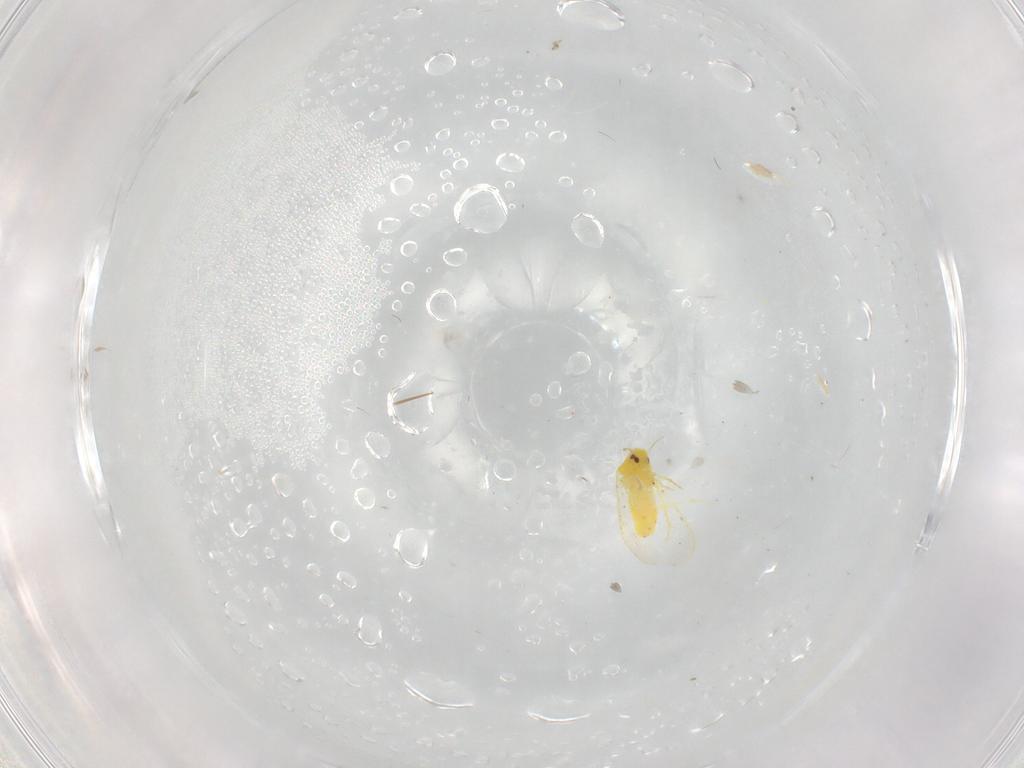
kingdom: Animalia
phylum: Arthropoda
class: Insecta
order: Hemiptera
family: Aleyrodidae
